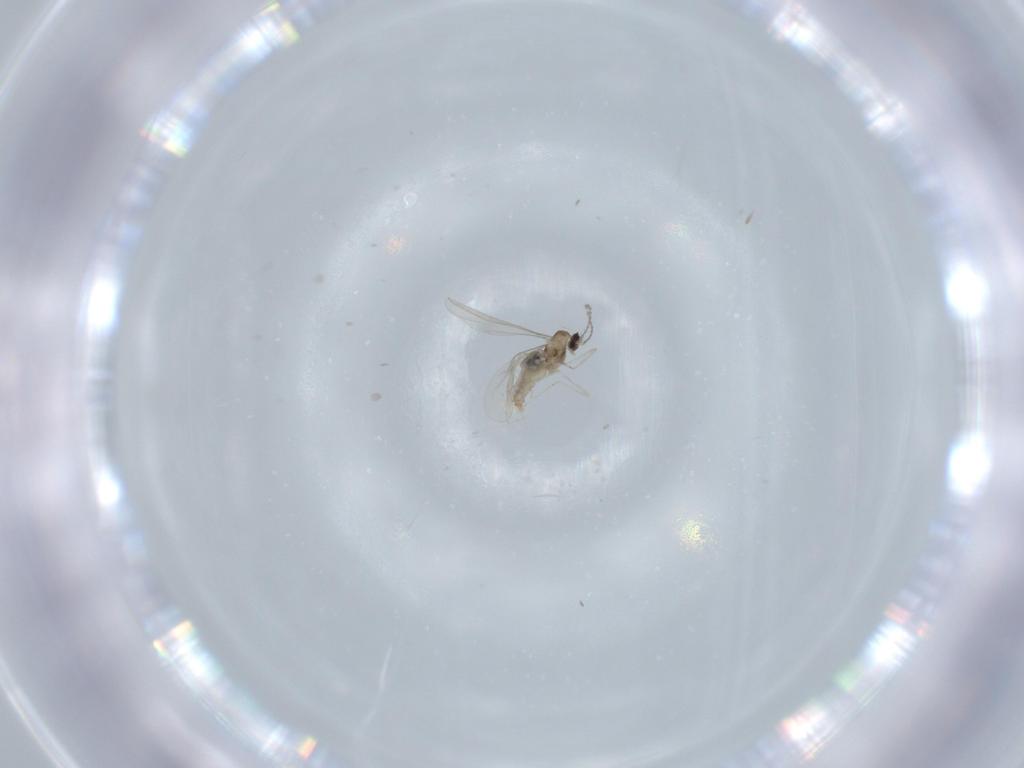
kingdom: Animalia
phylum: Arthropoda
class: Insecta
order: Diptera
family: Cecidomyiidae
